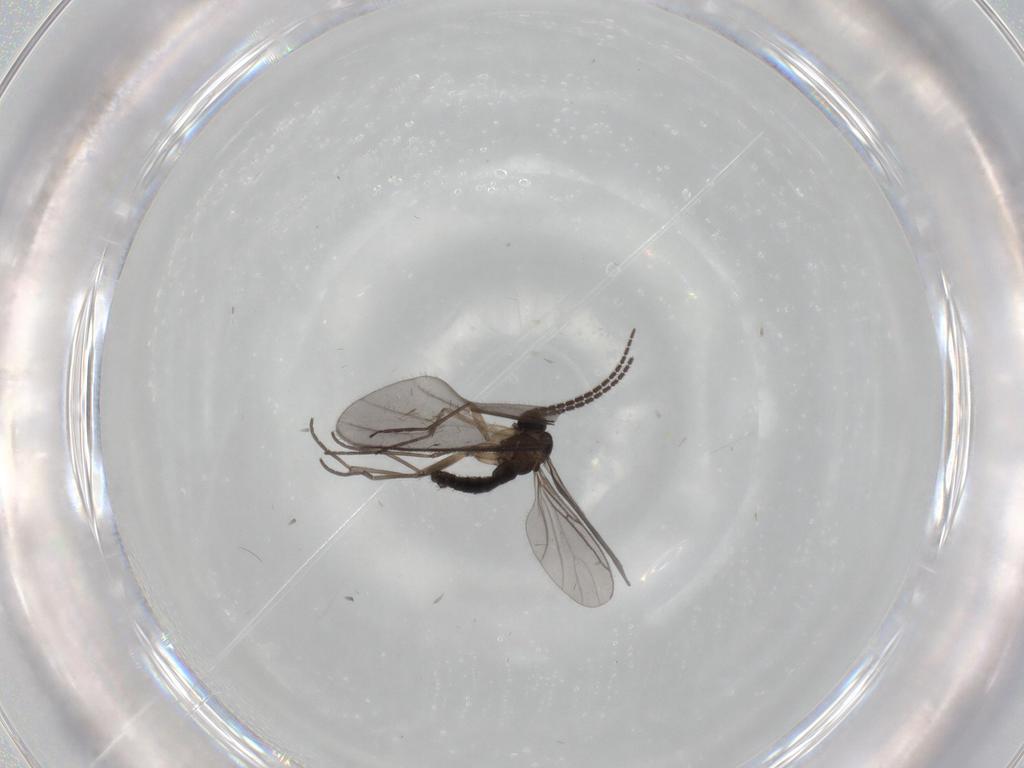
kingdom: Animalia
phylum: Arthropoda
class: Insecta
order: Diptera
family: Sciaridae
